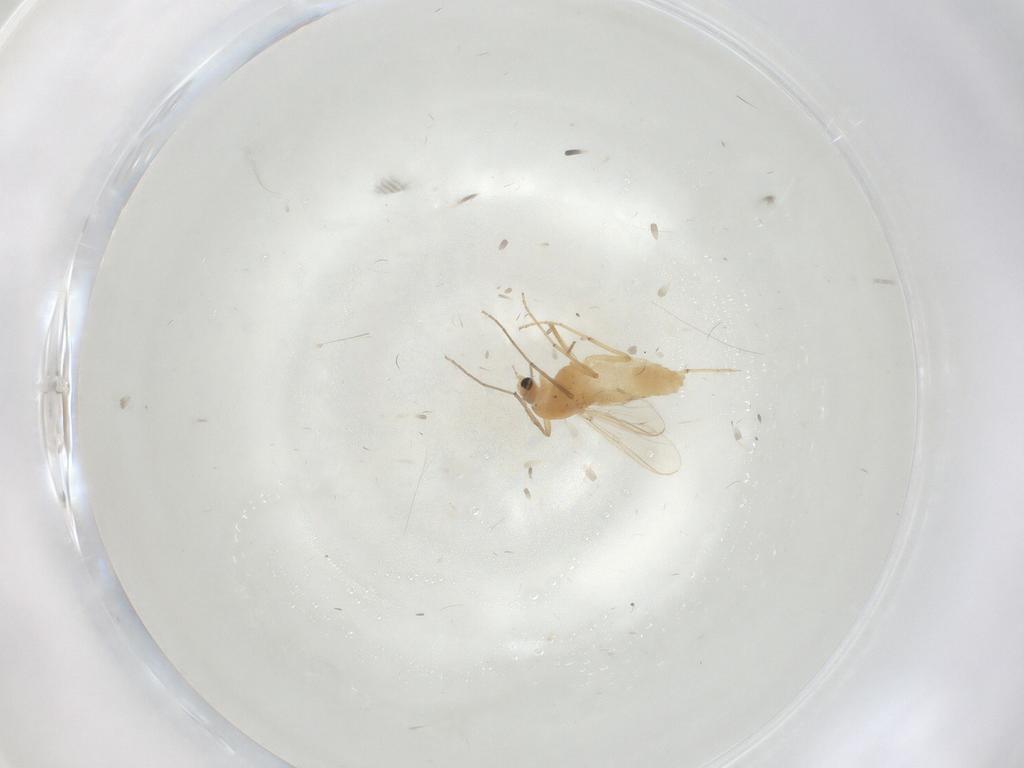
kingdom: Animalia
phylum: Arthropoda
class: Insecta
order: Diptera
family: Chironomidae
